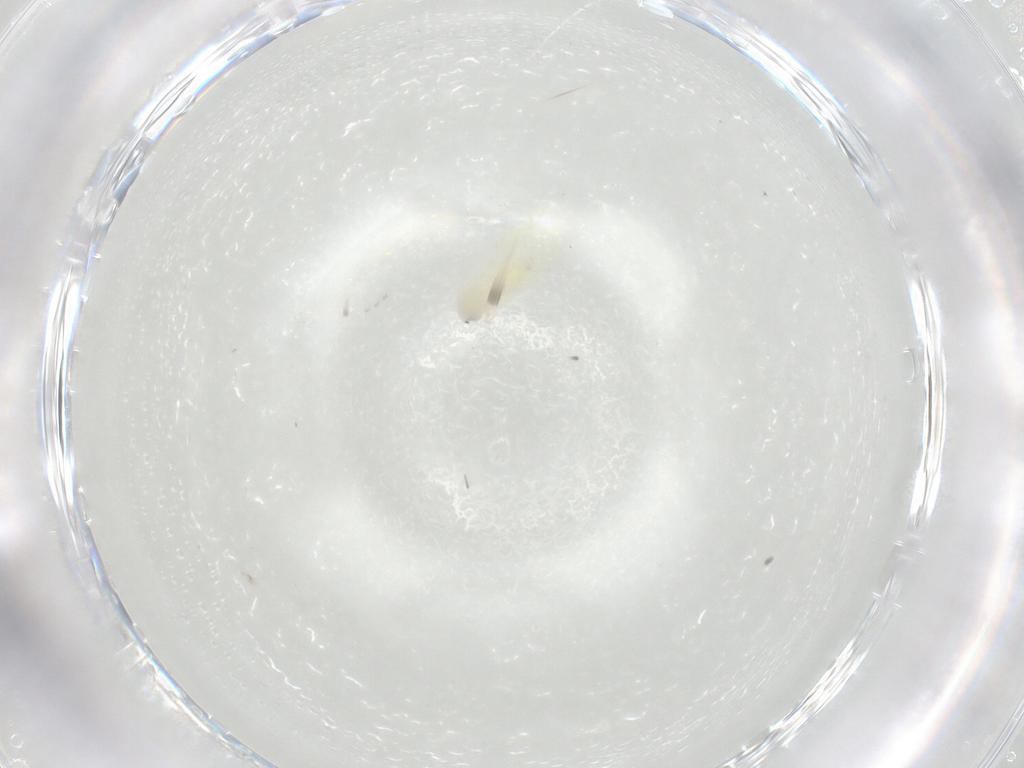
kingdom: Animalia
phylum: Arthropoda
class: Insecta
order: Hemiptera
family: Aleyrodidae
